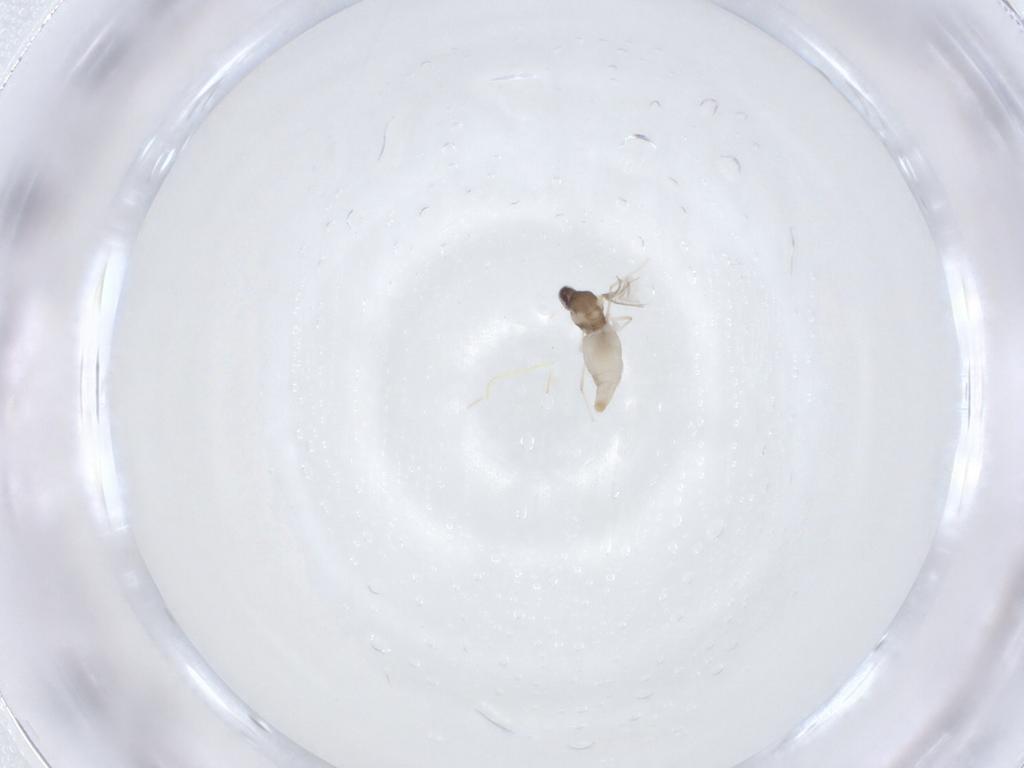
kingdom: Animalia
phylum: Arthropoda
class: Insecta
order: Diptera
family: Cecidomyiidae
